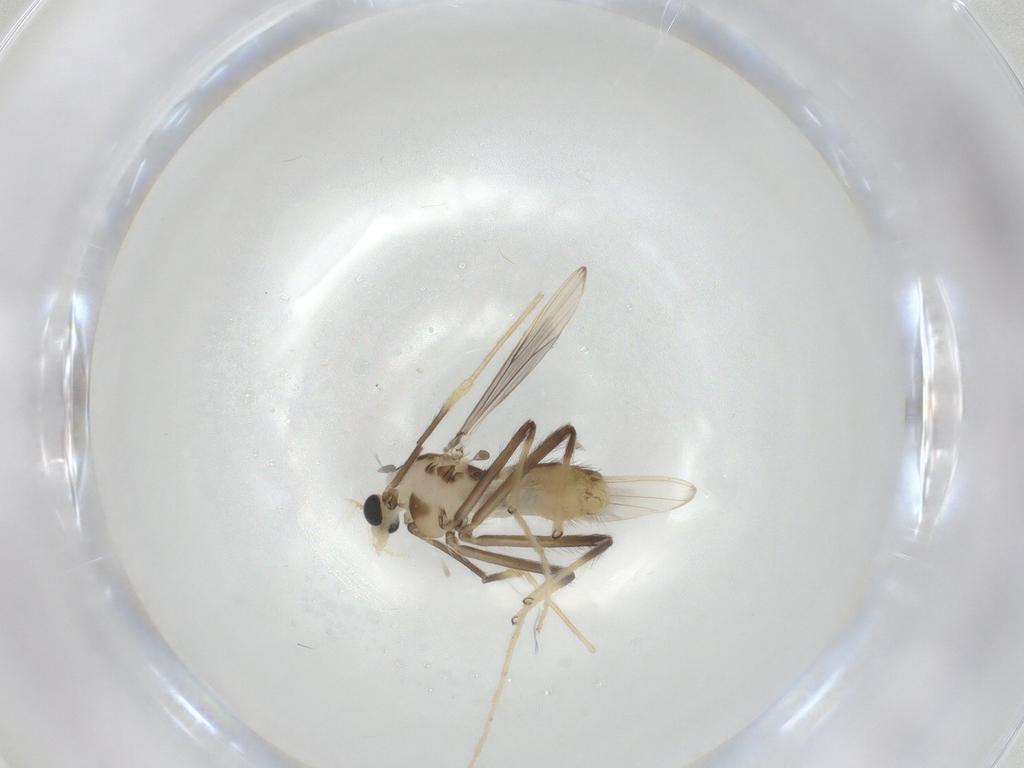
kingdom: Animalia
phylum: Arthropoda
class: Insecta
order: Diptera
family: Chironomidae
